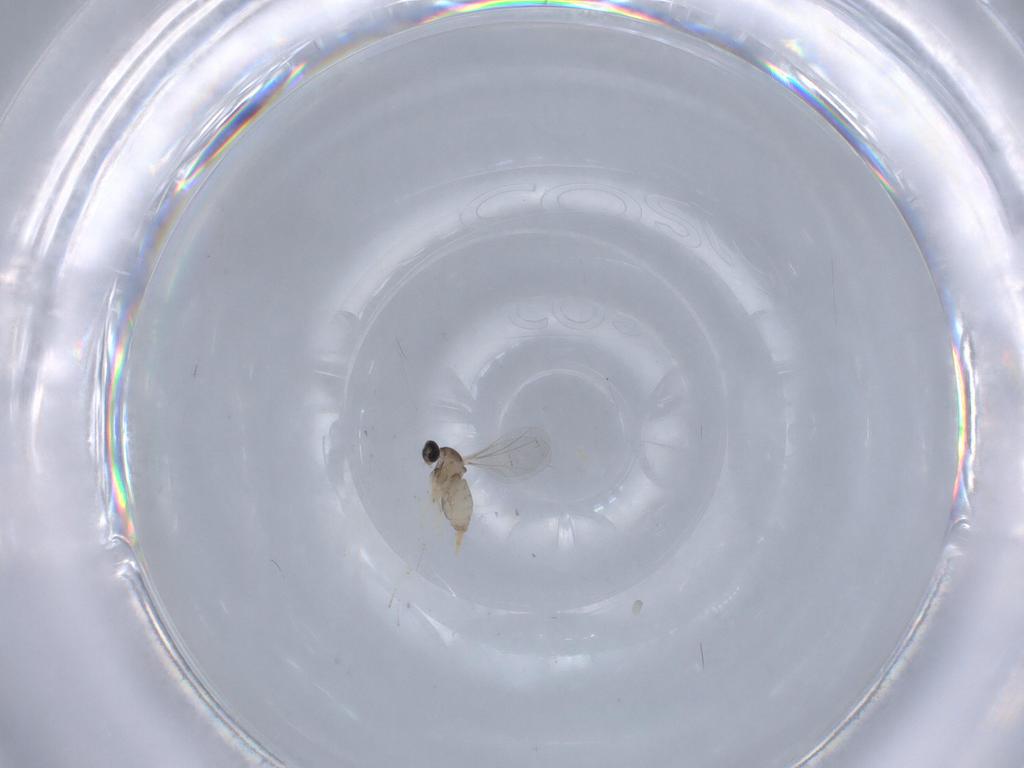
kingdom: Animalia
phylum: Arthropoda
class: Insecta
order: Diptera
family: Cecidomyiidae
